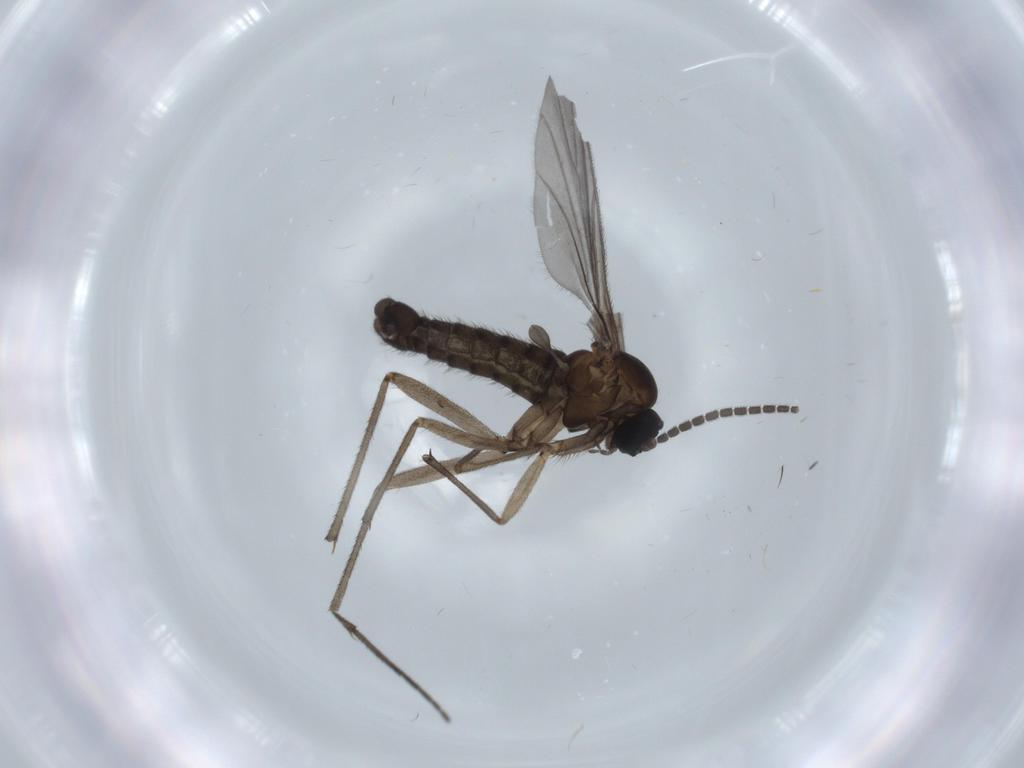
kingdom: Animalia
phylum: Arthropoda
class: Insecta
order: Diptera
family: Sciaridae
